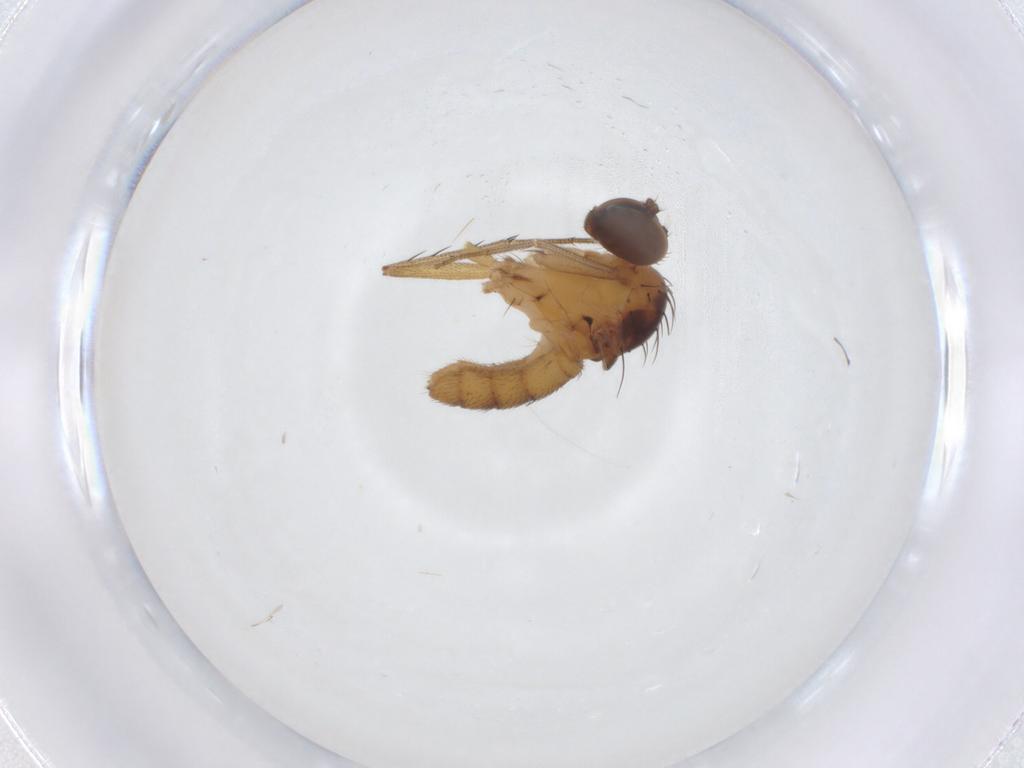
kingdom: Animalia
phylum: Arthropoda
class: Insecta
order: Diptera
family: Dolichopodidae
